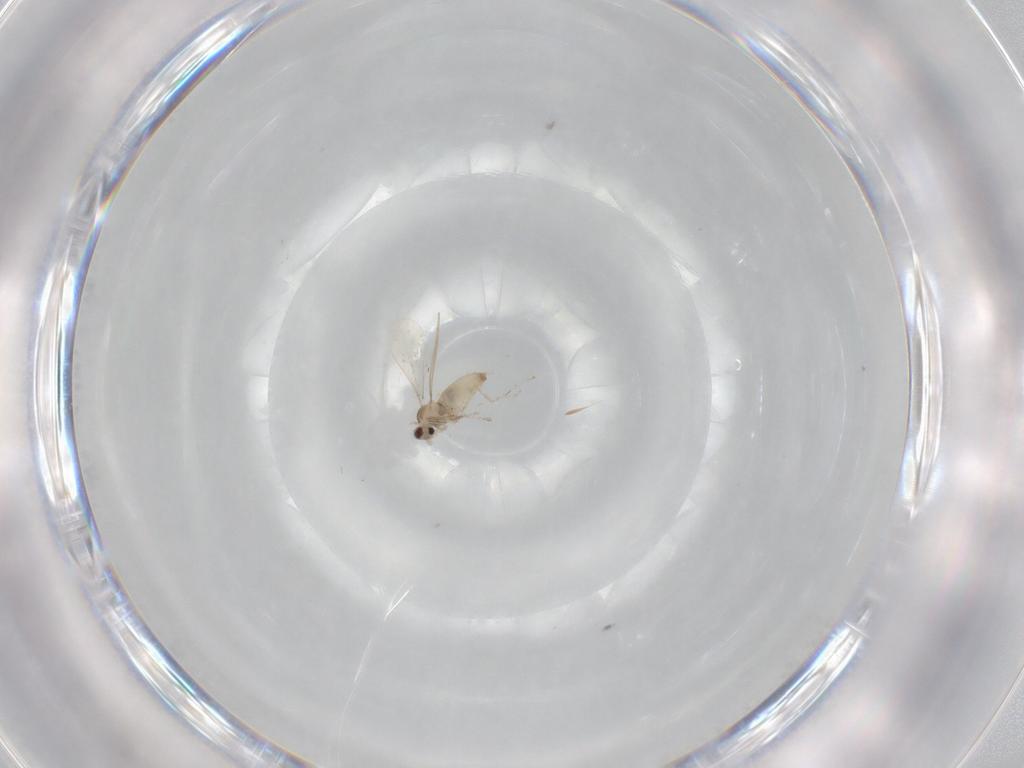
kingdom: Animalia
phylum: Arthropoda
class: Insecta
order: Diptera
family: Cecidomyiidae
